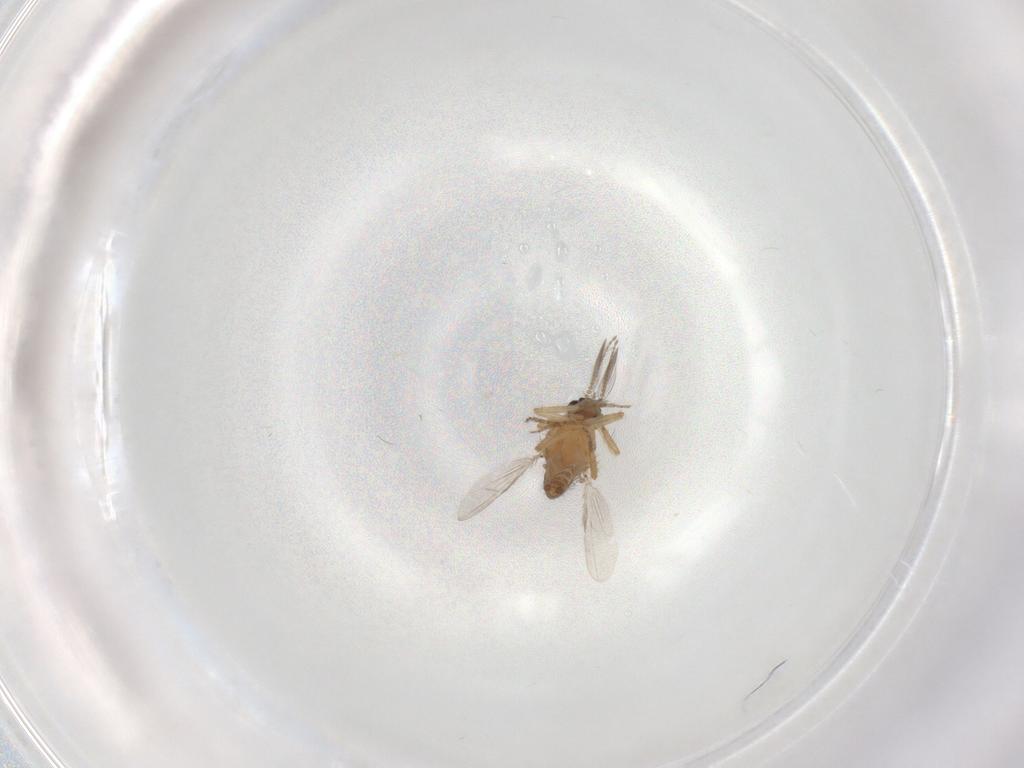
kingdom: Animalia
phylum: Arthropoda
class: Insecta
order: Diptera
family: Ceratopogonidae
